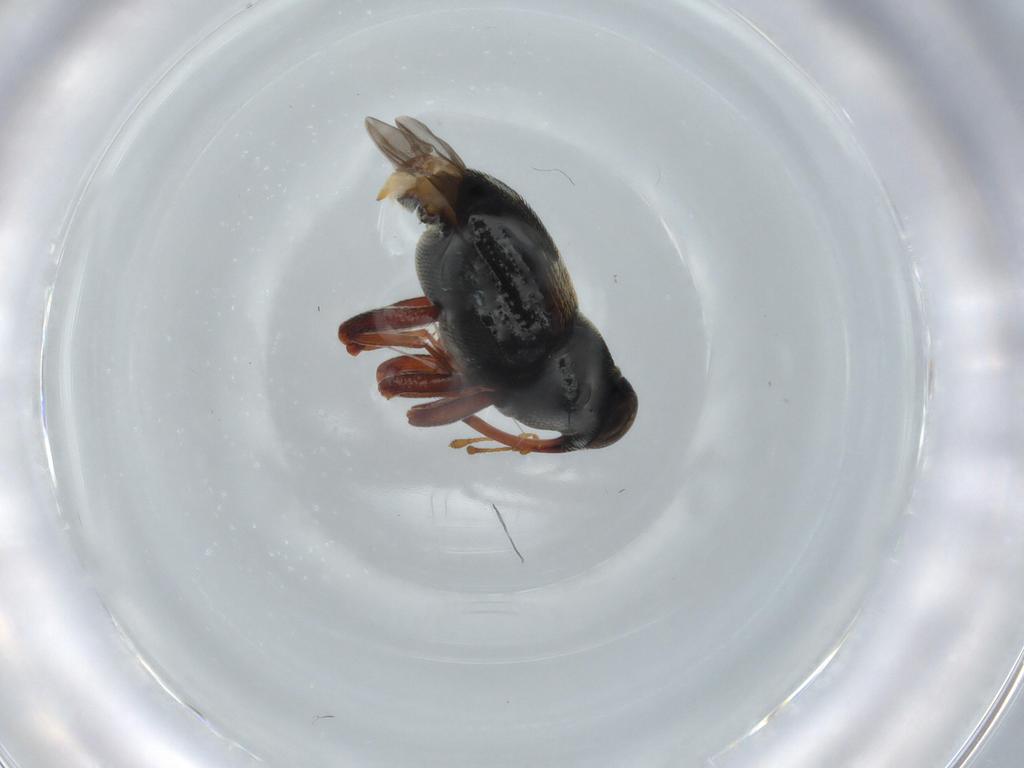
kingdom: Animalia
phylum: Arthropoda
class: Insecta
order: Coleoptera
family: Curculionidae
